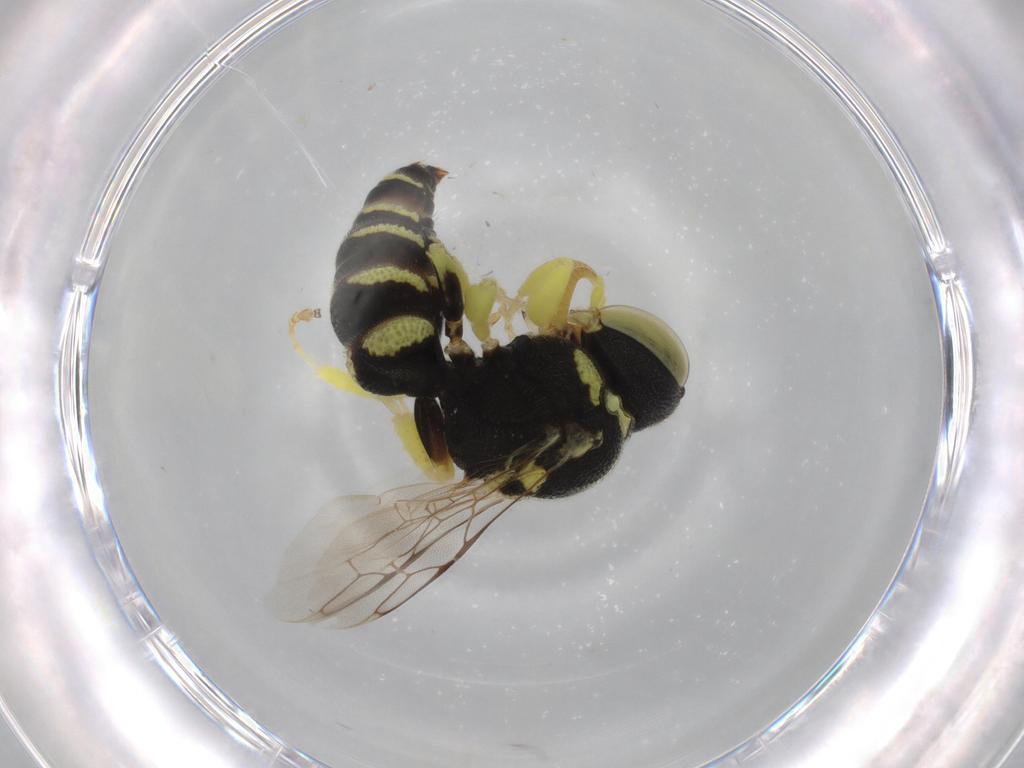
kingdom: Animalia
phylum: Arthropoda
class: Insecta
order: Hymenoptera
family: Crabronidae
